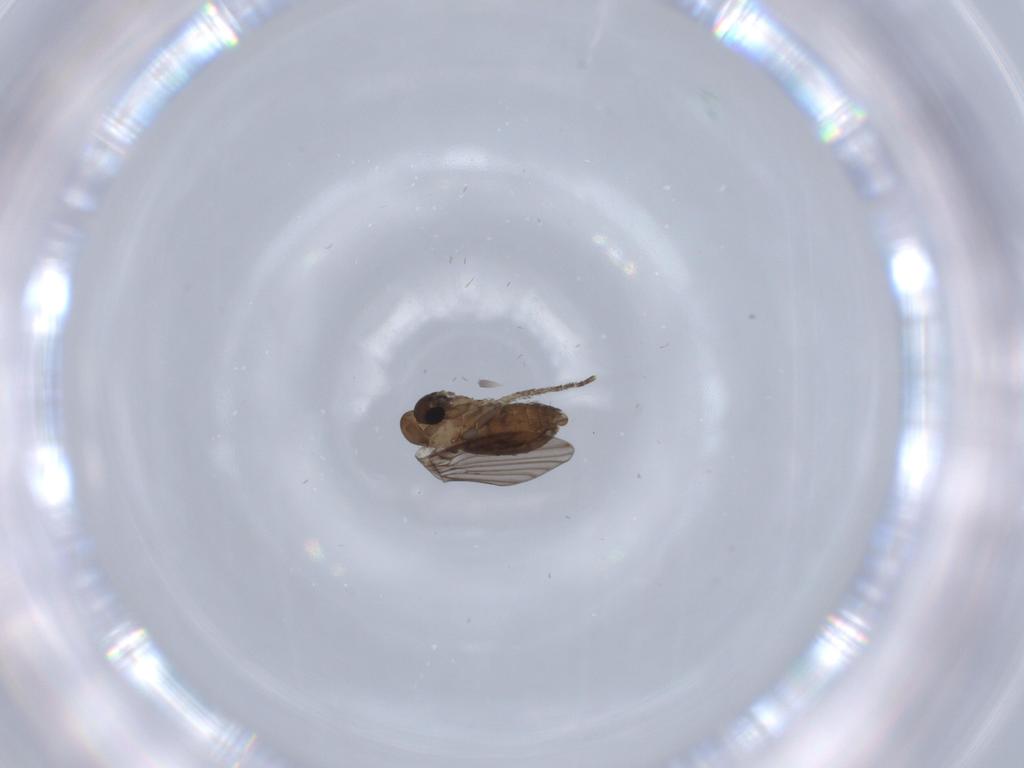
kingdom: Animalia
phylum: Arthropoda
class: Insecta
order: Diptera
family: Psychodidae
